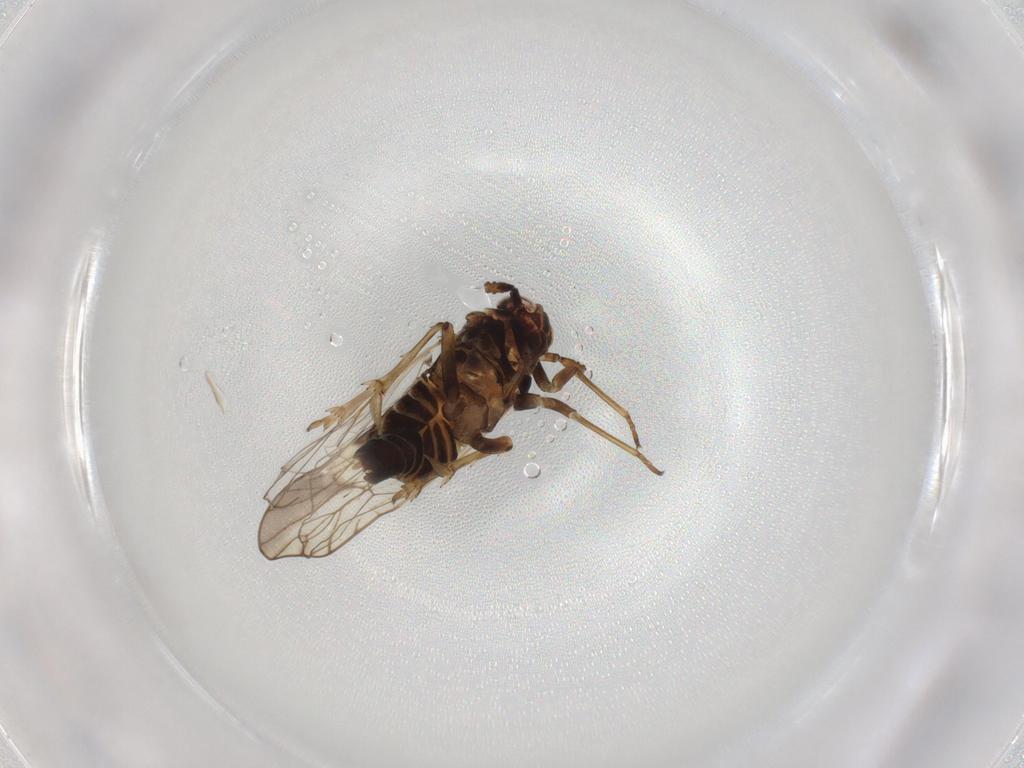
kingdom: Animalia
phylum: Arthropoda
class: Insecta
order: Hemiptera
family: Delphacidae
